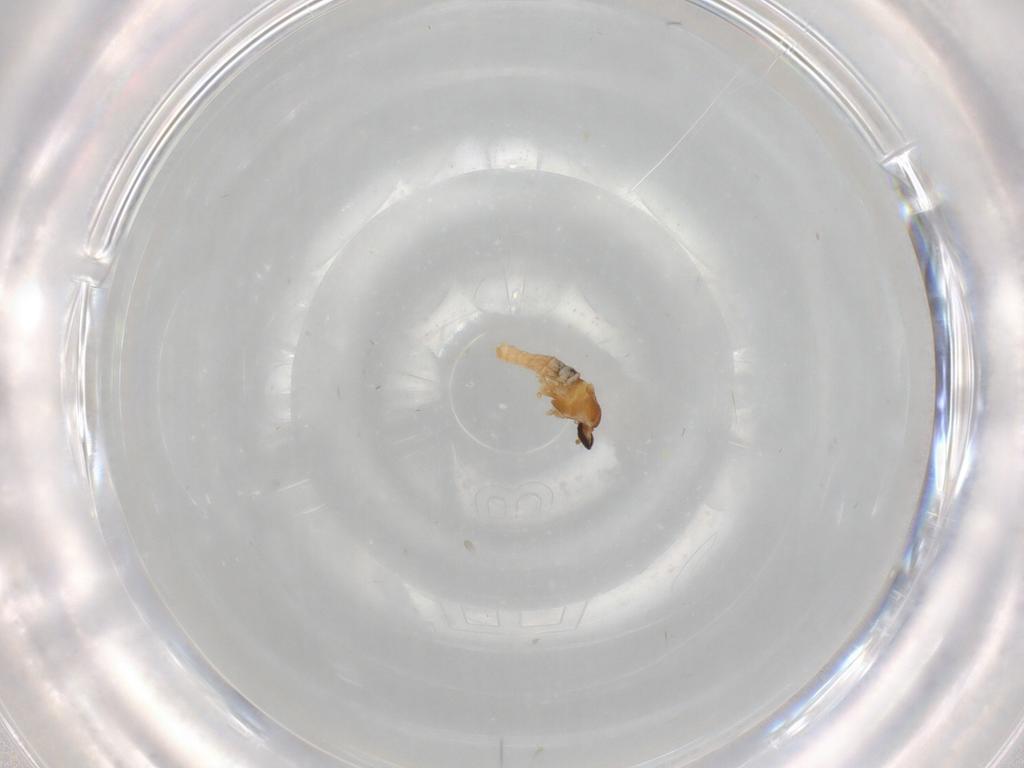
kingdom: Animalia
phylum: Arthropoda
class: Insecta
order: Diptera
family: Cecidomyiidae
